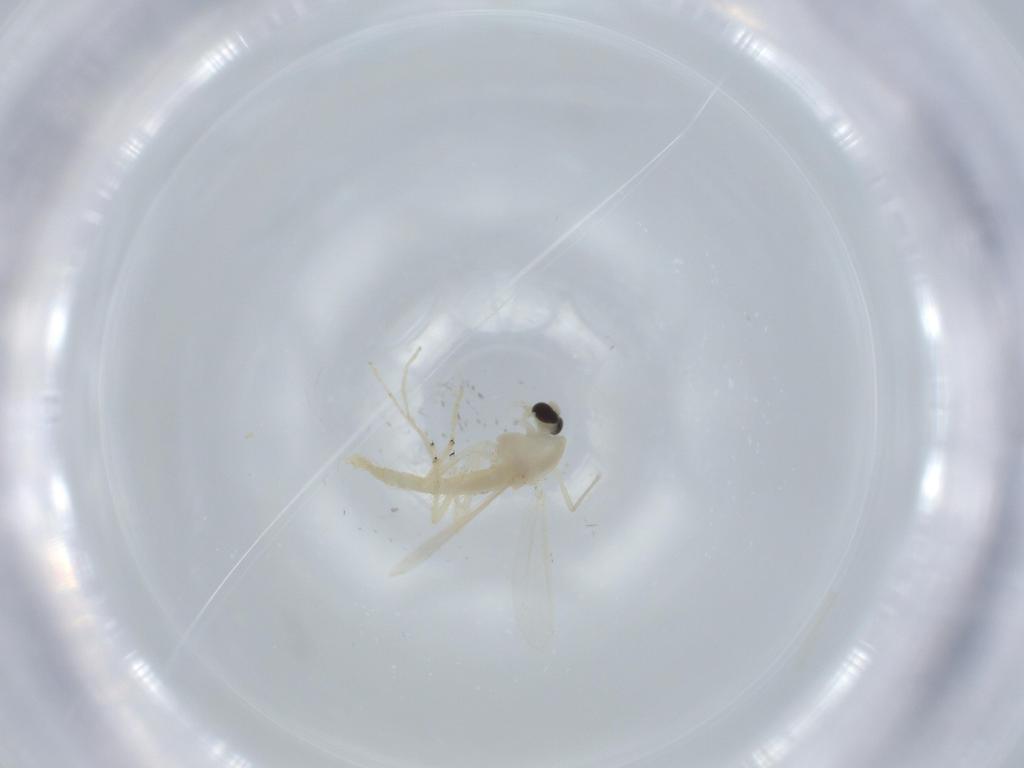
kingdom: Animalia
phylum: Arthropoda
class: Insecta
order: Diptera
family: Chironomidae
